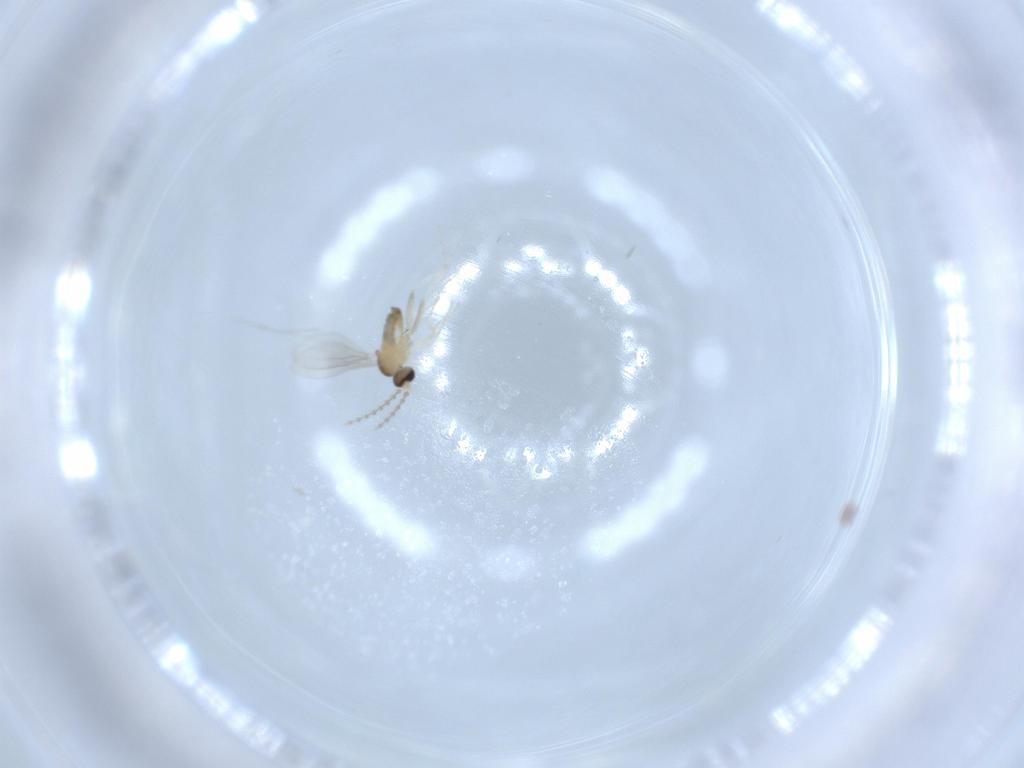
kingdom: Animalia
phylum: Arthropoda
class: Insecta
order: Diptera
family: Cecidomyiidae
